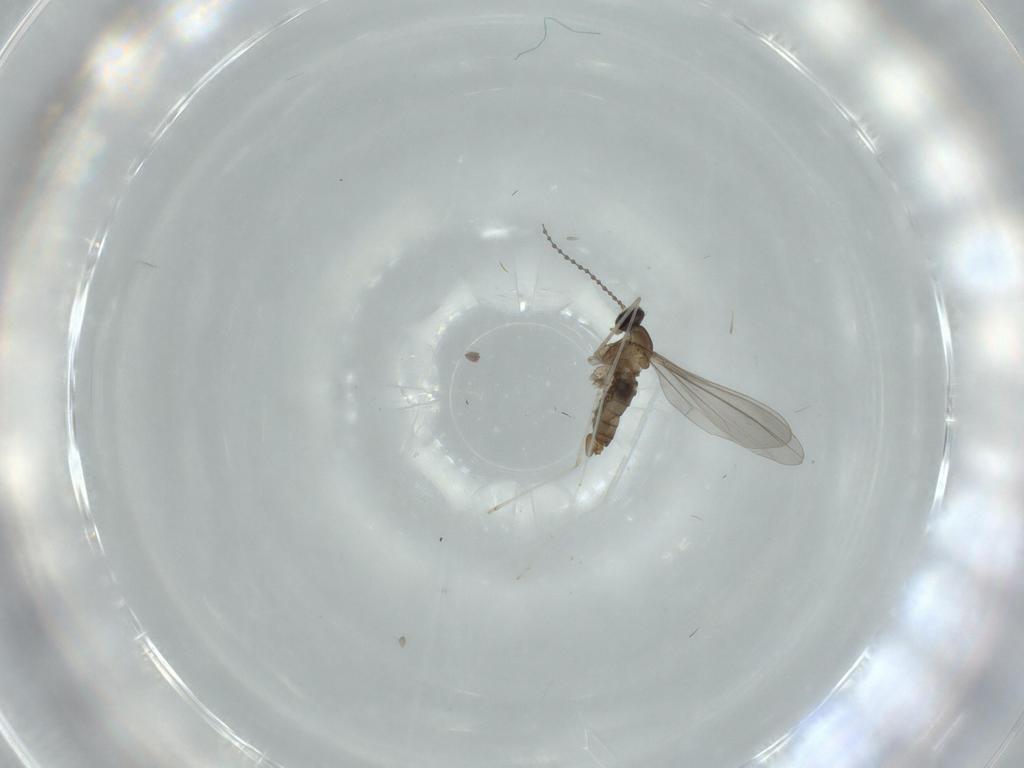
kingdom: Animalia
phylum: Arthropoda
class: Insecta
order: Diptera
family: Cecidomyiidae
